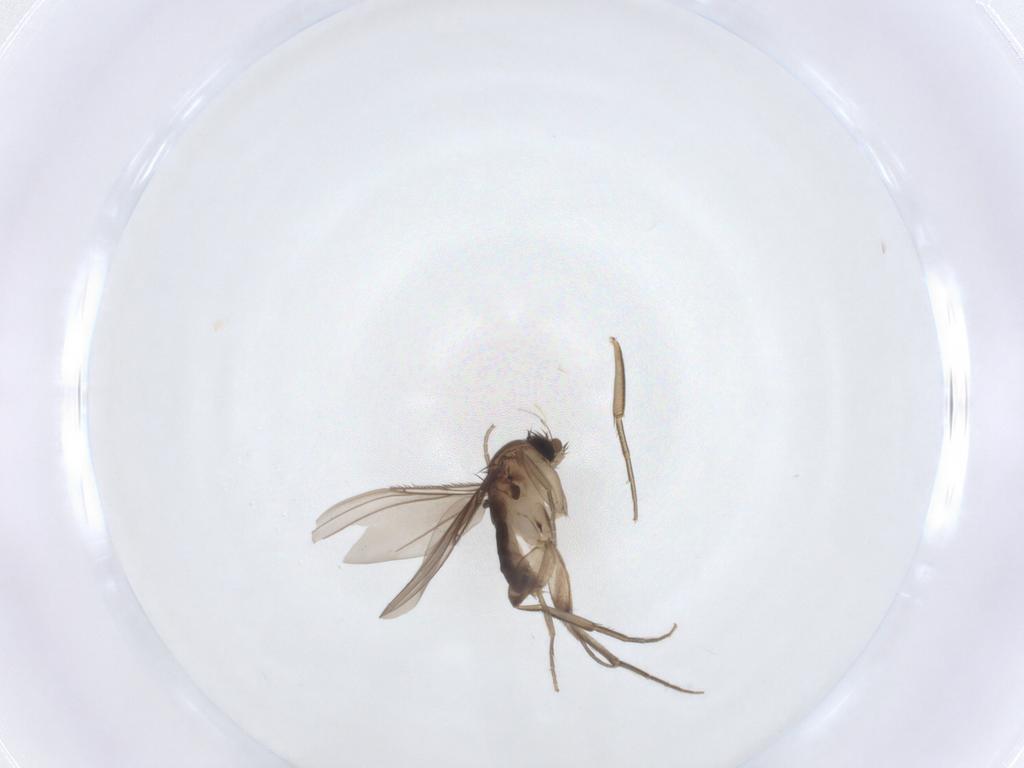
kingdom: Animalia
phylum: Arthropoda
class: Insecta
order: Diptera
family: Phoridae
